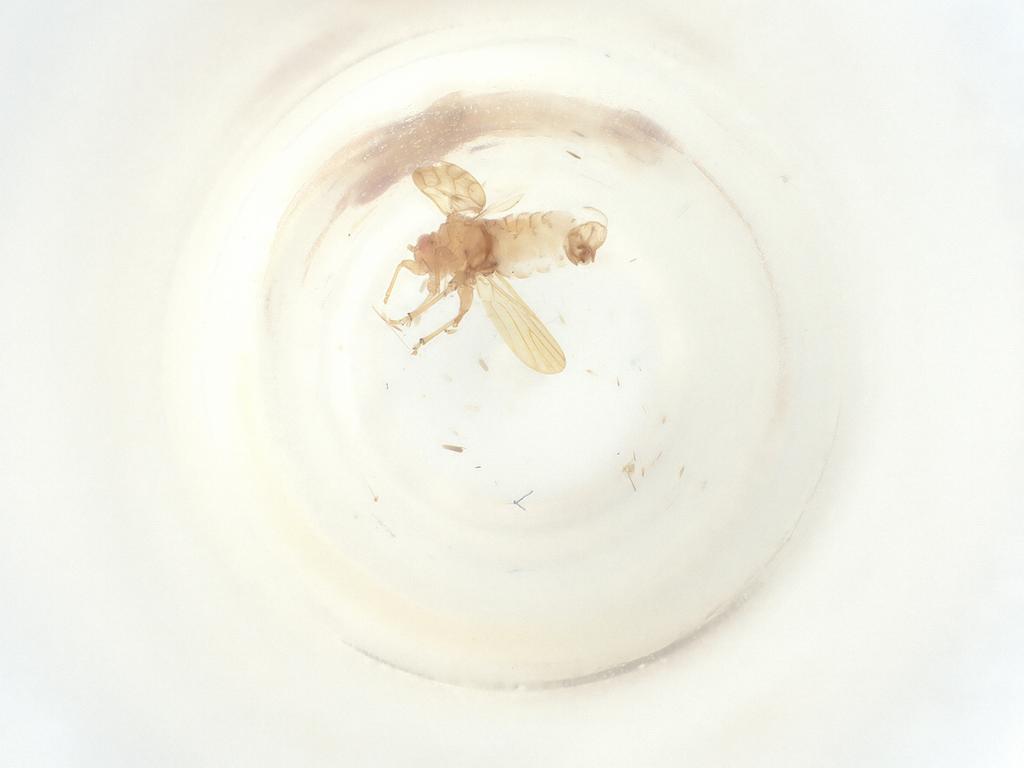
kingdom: Animalia
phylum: Arthropoda
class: Insecta
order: Hemiptera
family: Liviidae
